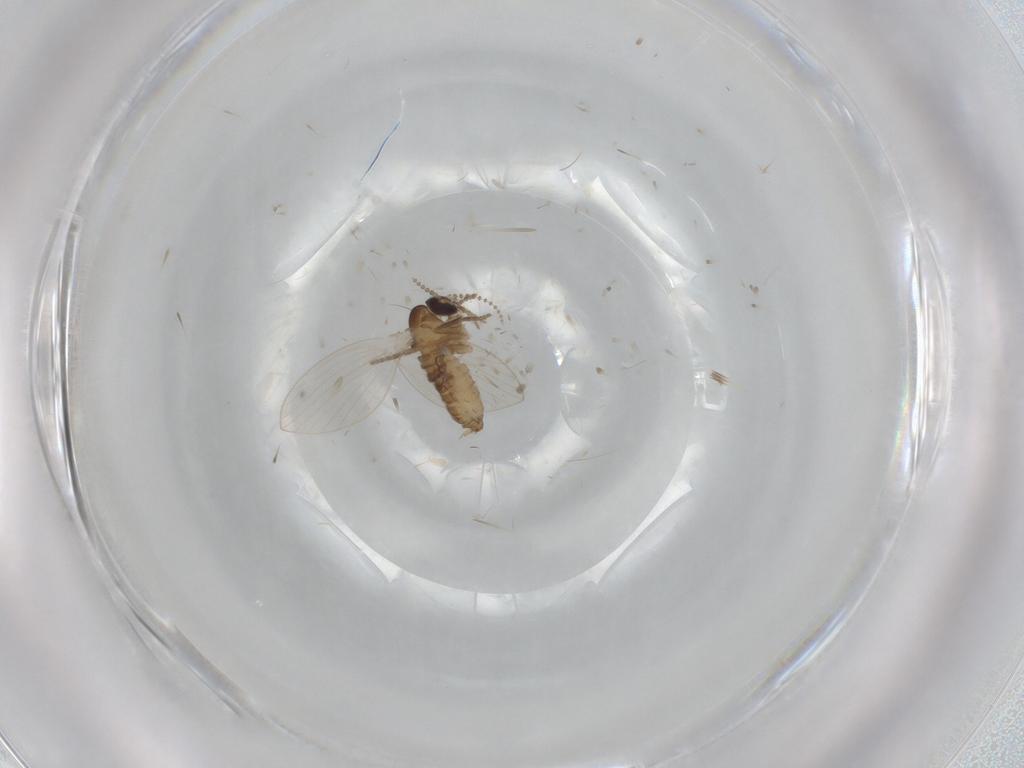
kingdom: Animalia
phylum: Arthropoda
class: Insecta
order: Diptera
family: Psychodidae
